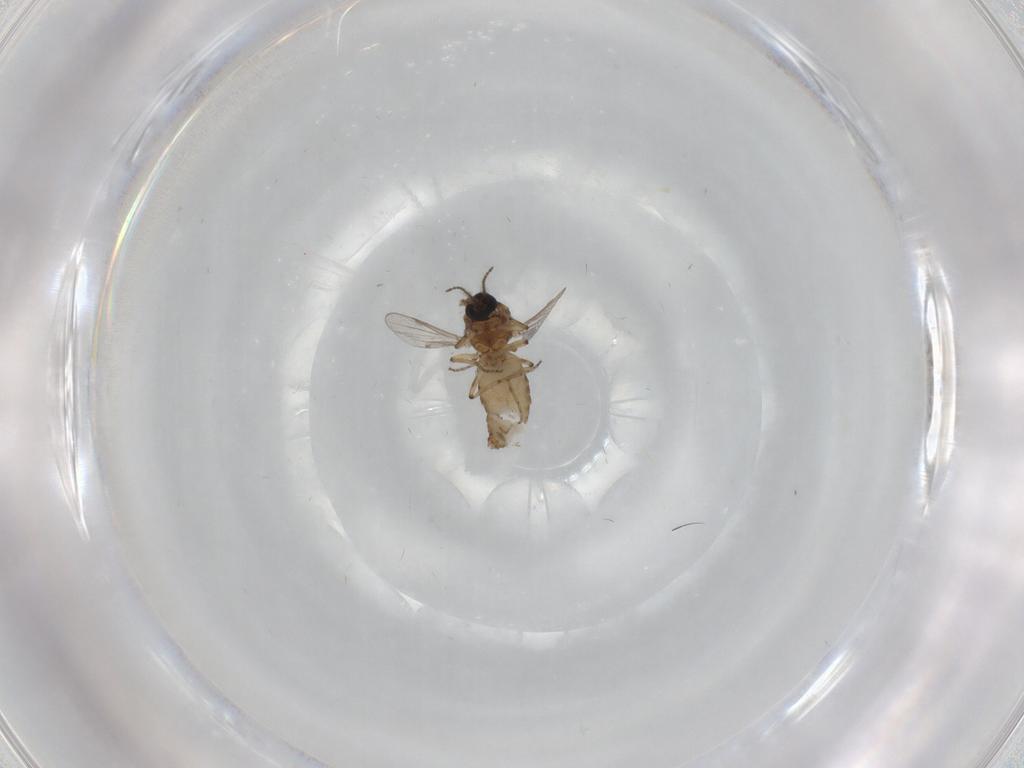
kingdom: Animalia
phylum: Arthropoda
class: Insecta
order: Diptera
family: Ceratopogonidae
